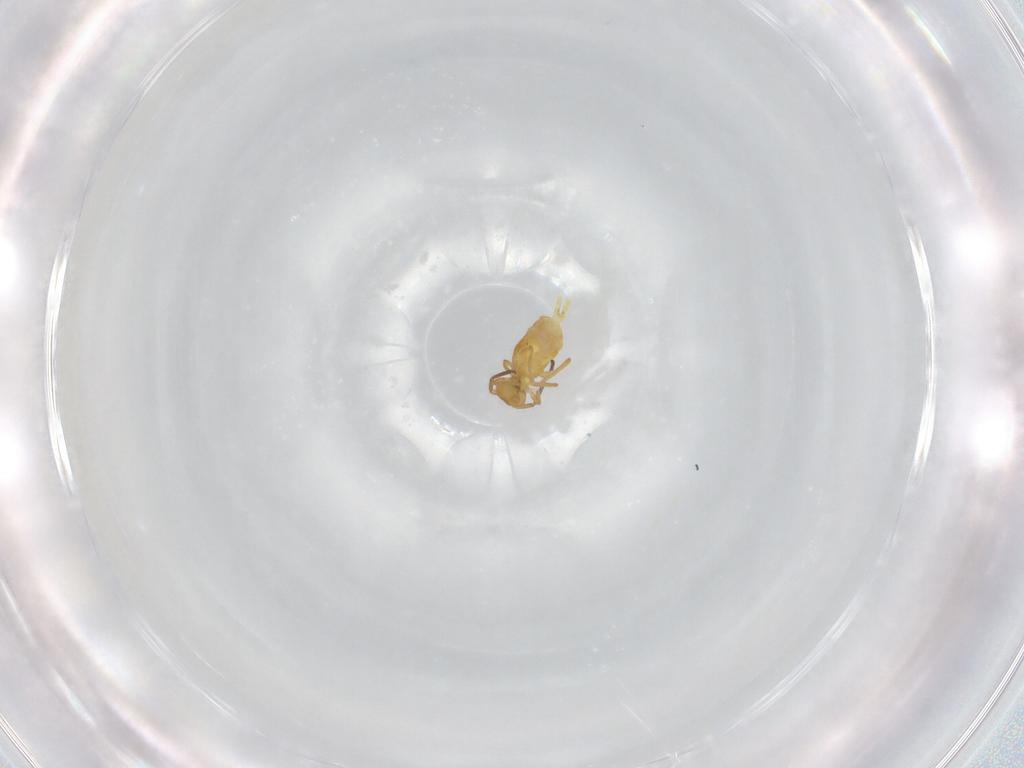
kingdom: Animalia
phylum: Arthropoda
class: Collembola
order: Symphypleona
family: Bourletiellidae
